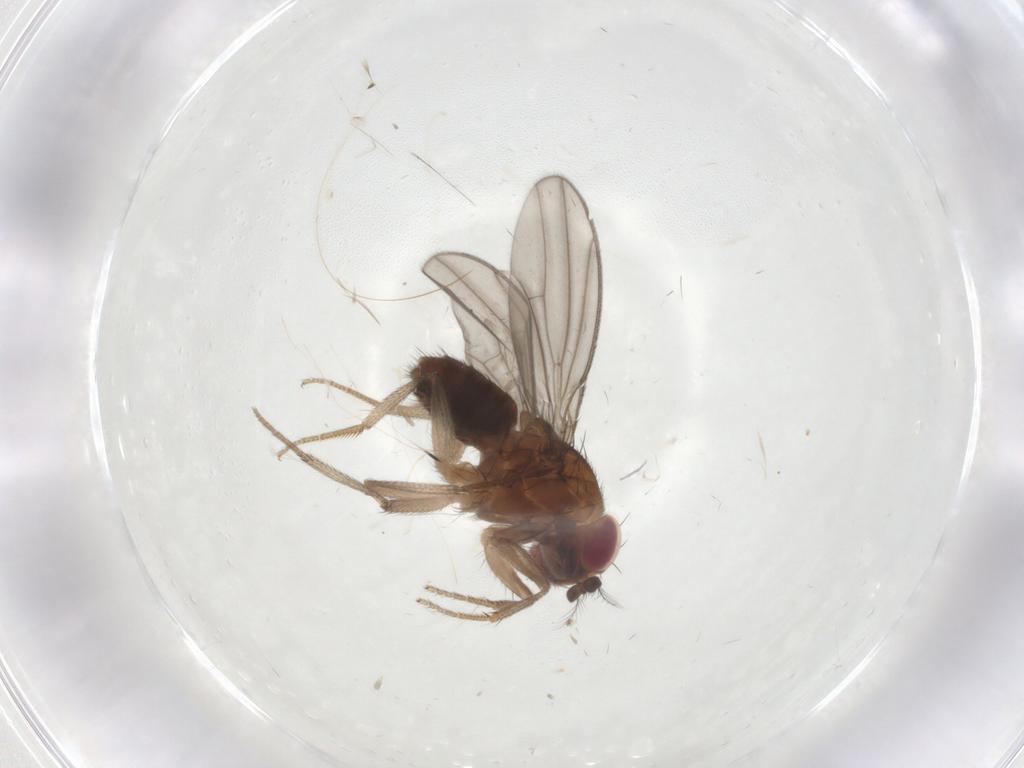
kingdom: Animalia
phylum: Arthropoda
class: Insecta
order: Diptera
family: Drosophilidae
